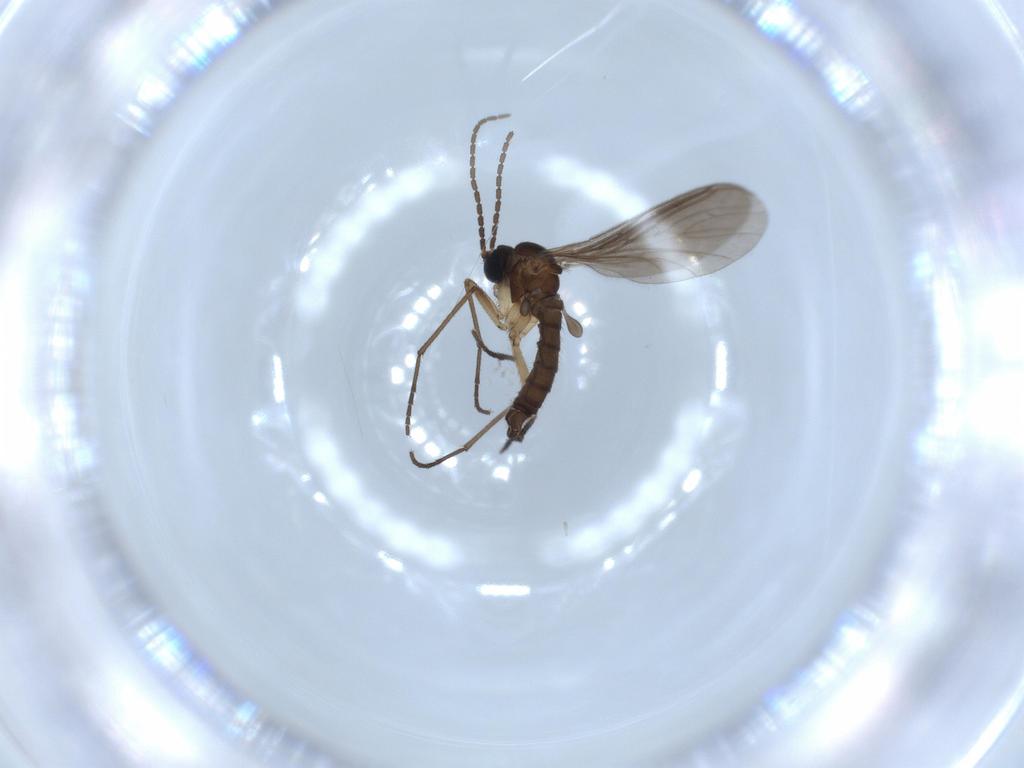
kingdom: Animalia
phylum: Arthropoda
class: Insecta
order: Diptera
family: Sciaridae
